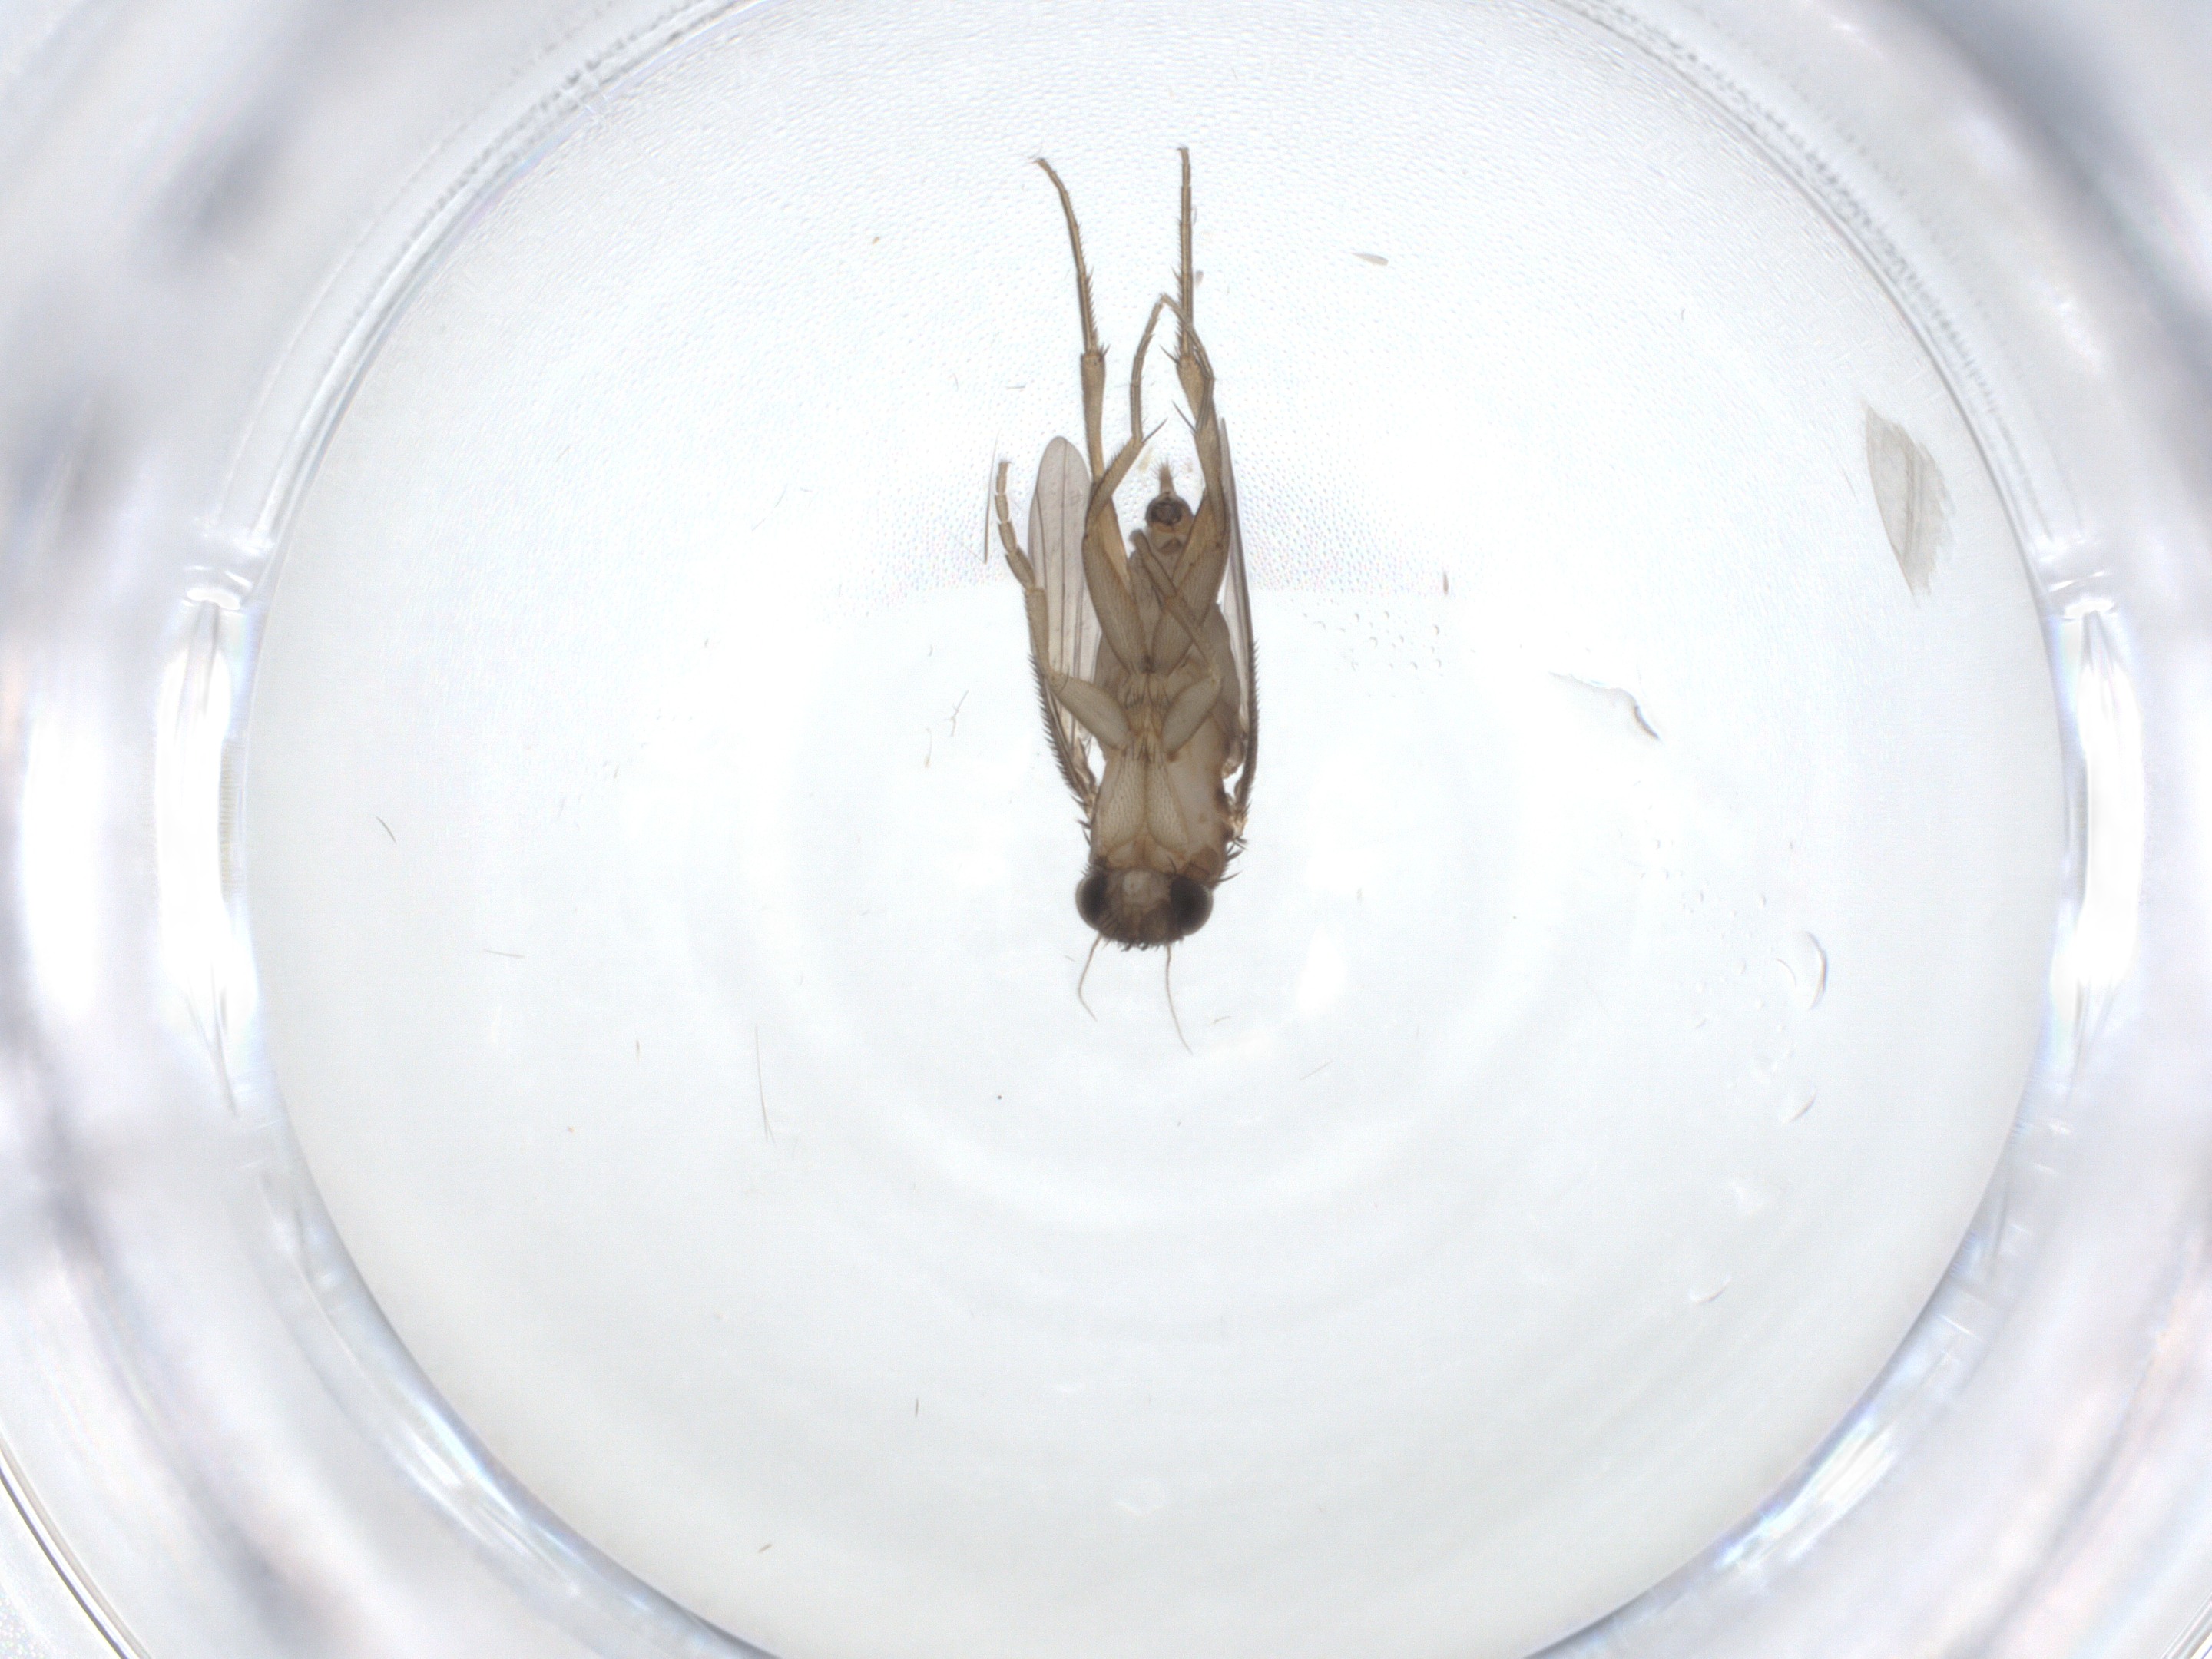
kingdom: Animalia
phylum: Arthropoda
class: Insecta
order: Diptera
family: Phoridae
